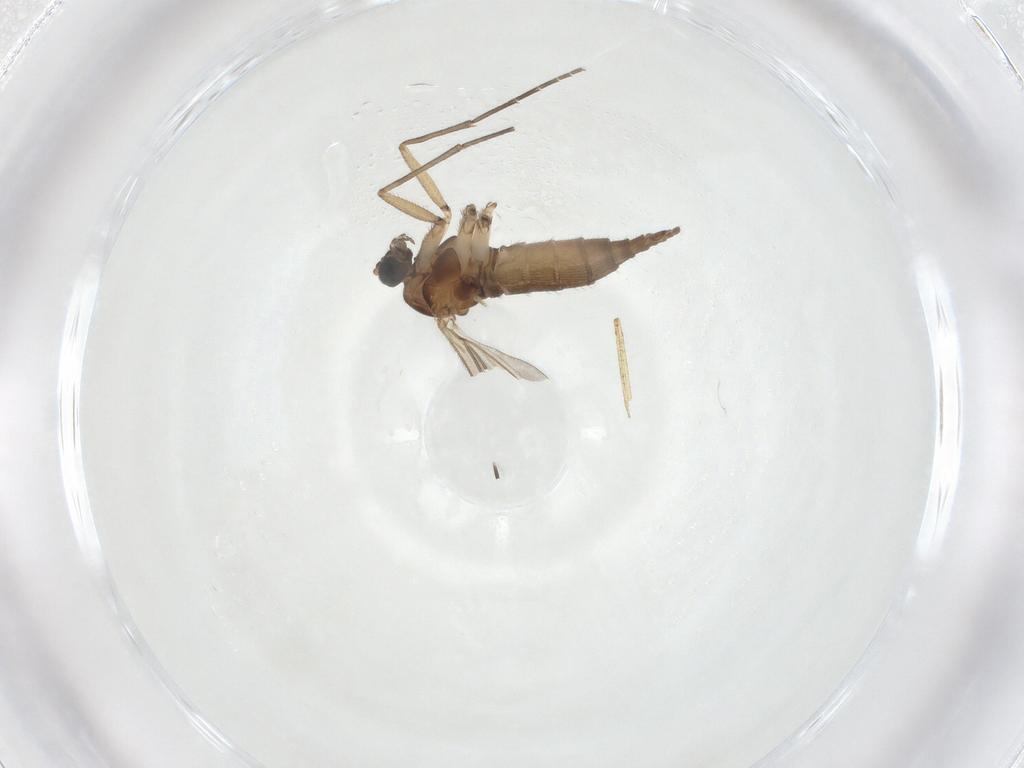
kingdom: Animalia
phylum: Arthropoda
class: Insecta
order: Diptera
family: Sciaridae
